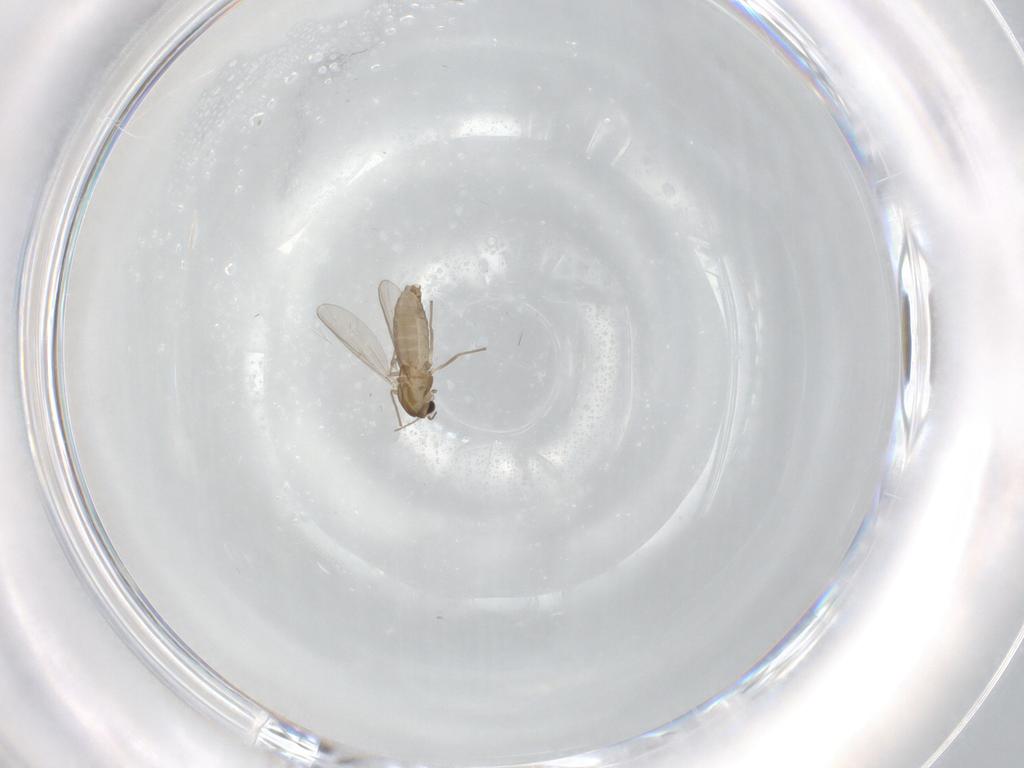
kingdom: Animalia
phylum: Arthropoda
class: Insecta
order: Diptera
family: Chironomidae
